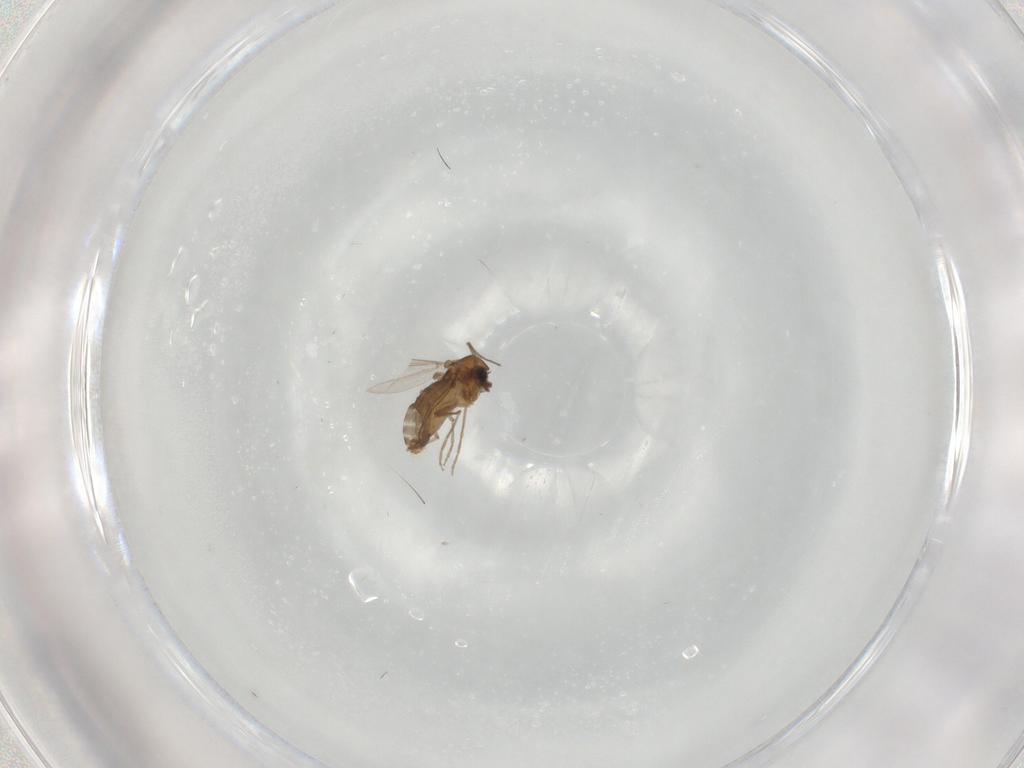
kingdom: Animalia
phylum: Arthropoda
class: Insecta
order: Diptera
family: Chironomidae
